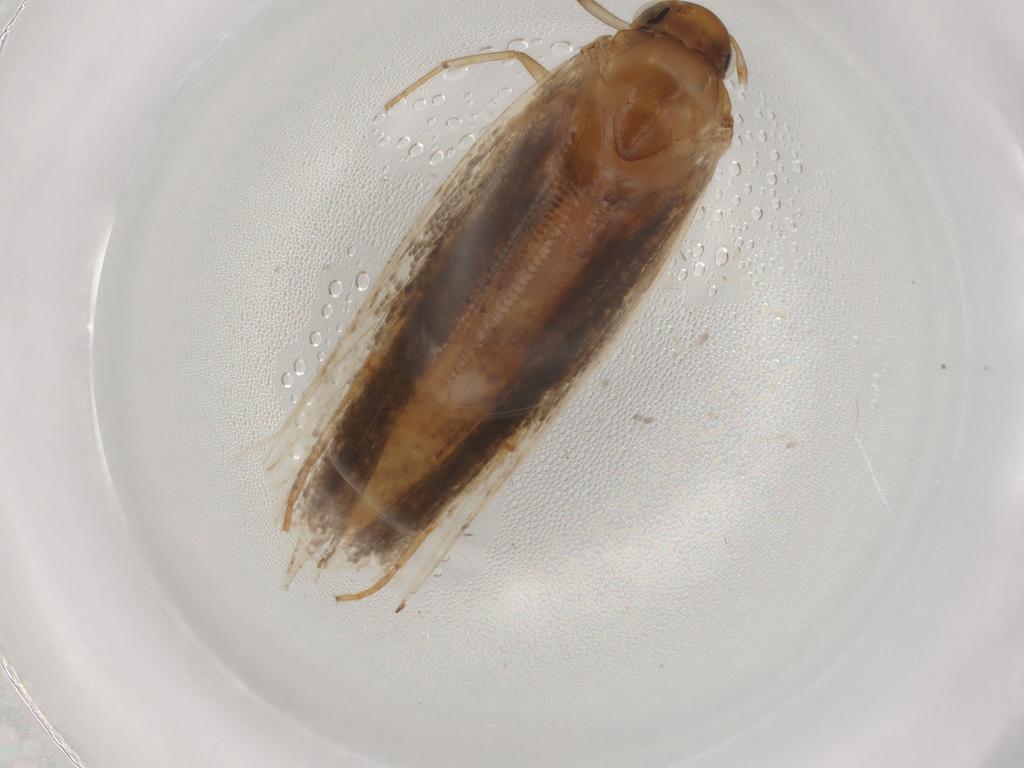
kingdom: Animalia
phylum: Arthropoda
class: Insecta
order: Lepidoptera
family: Gelechiidae
